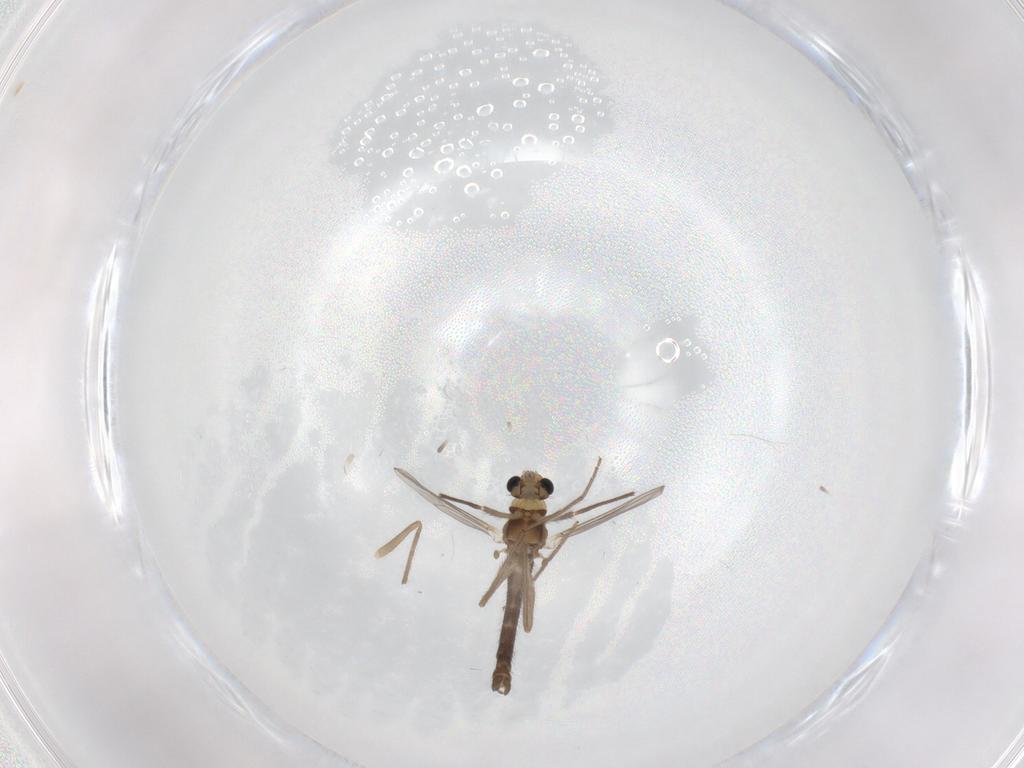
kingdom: Animalia
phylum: Arthropoda
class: Insecta
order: Diptera
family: Chironomidae
